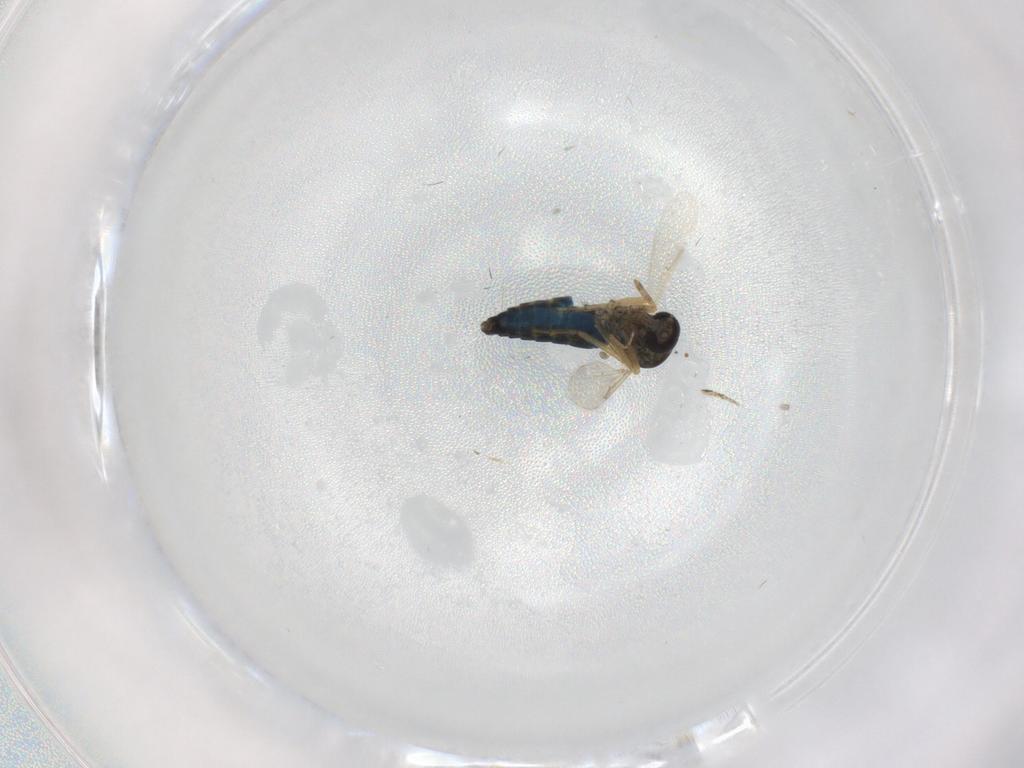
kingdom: Animalia
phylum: Arthropoda
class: Insecta
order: Diptera
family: Ceratopogonidae
